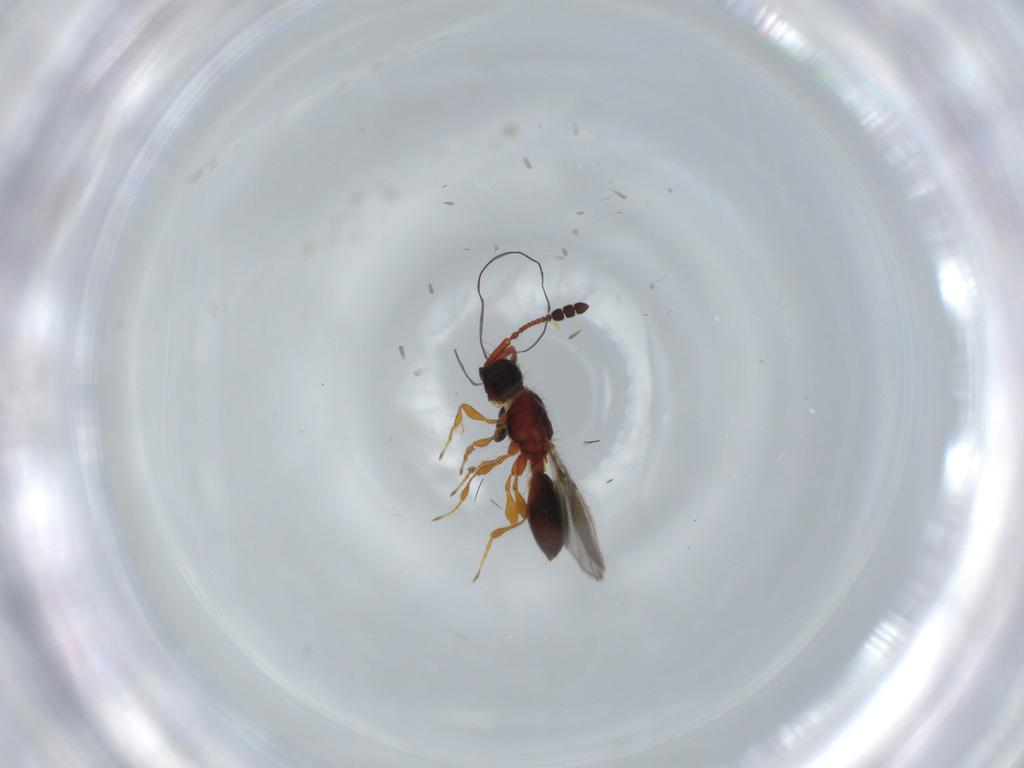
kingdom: Animalia
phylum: Arthropoda
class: Insecta
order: Hymenoptera
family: Diapriidae
